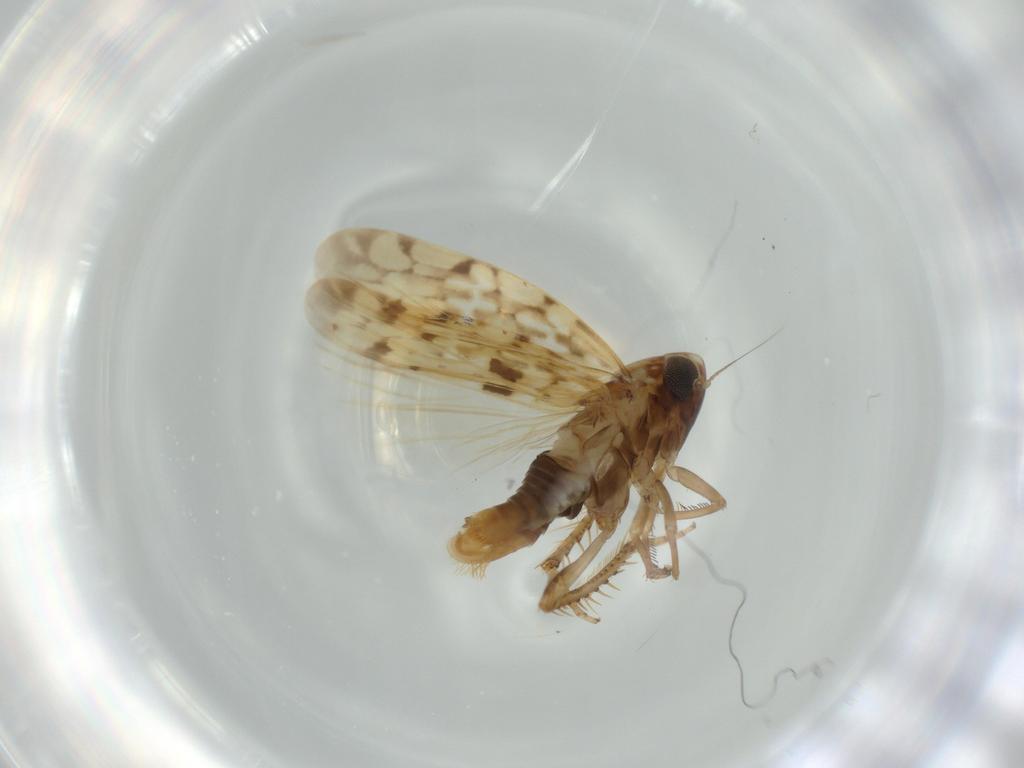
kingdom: Animalia
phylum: Arthropoda
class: Insecta
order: Hemiptera
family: Cicadellidae
